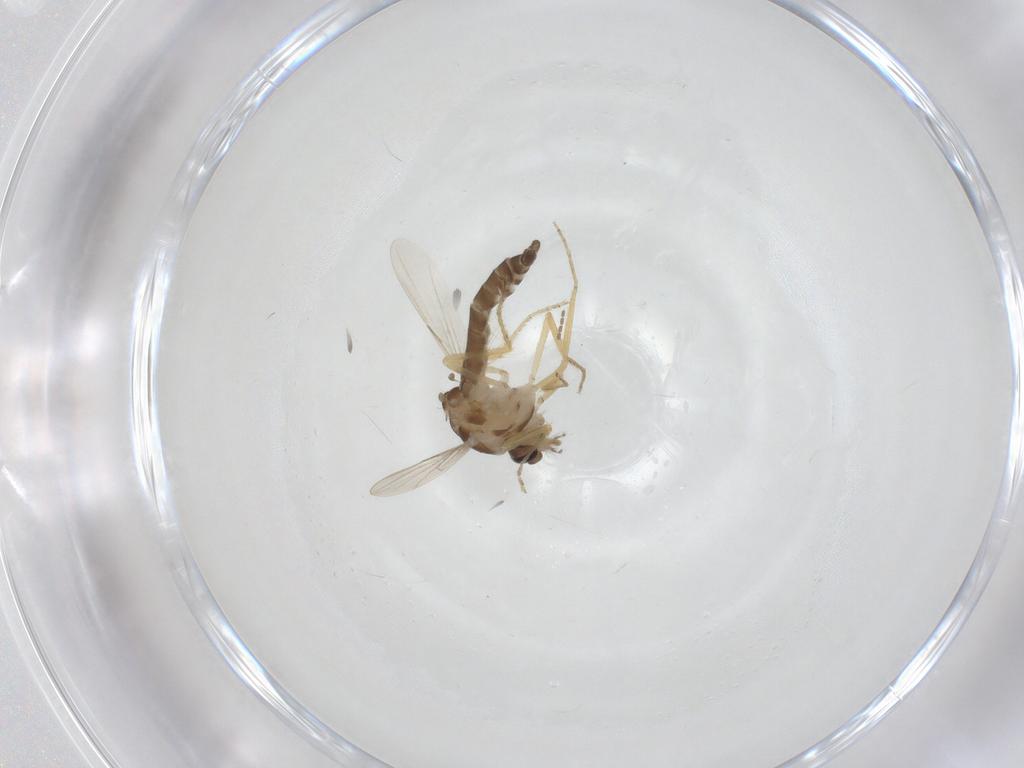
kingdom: Animalia
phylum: Arthropoda
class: Insecta
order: Diptera
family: Ceratopogonidae
